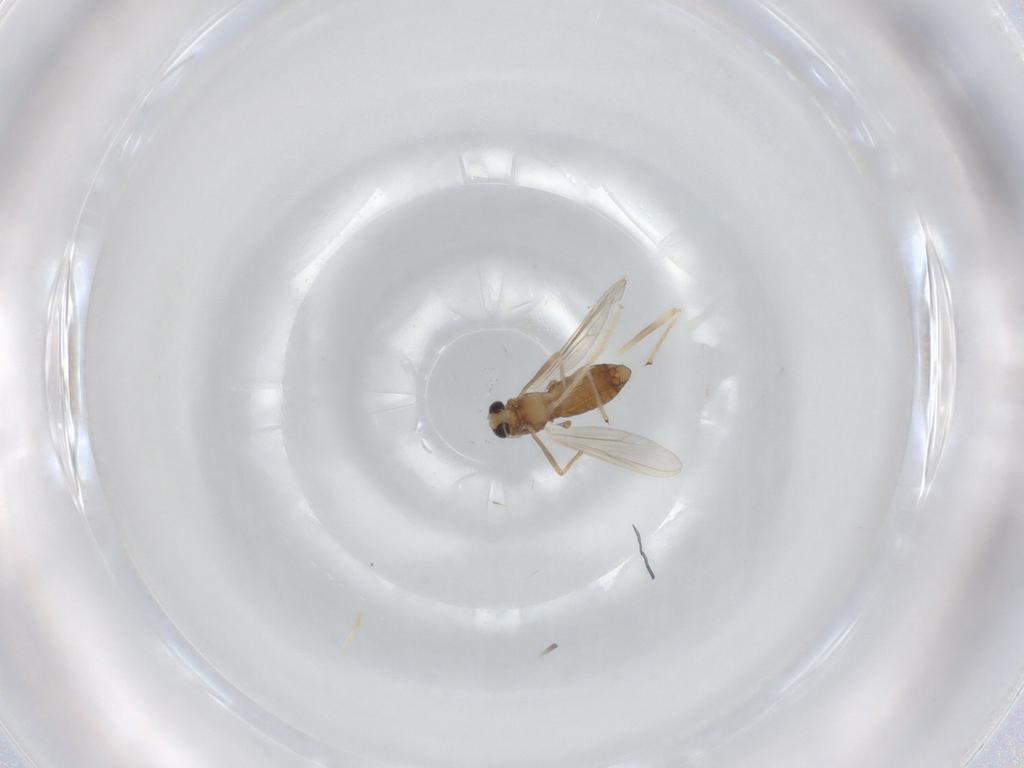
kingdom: Animalia
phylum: Arthropoda
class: Insecta
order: Diptera
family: Chironomidae
